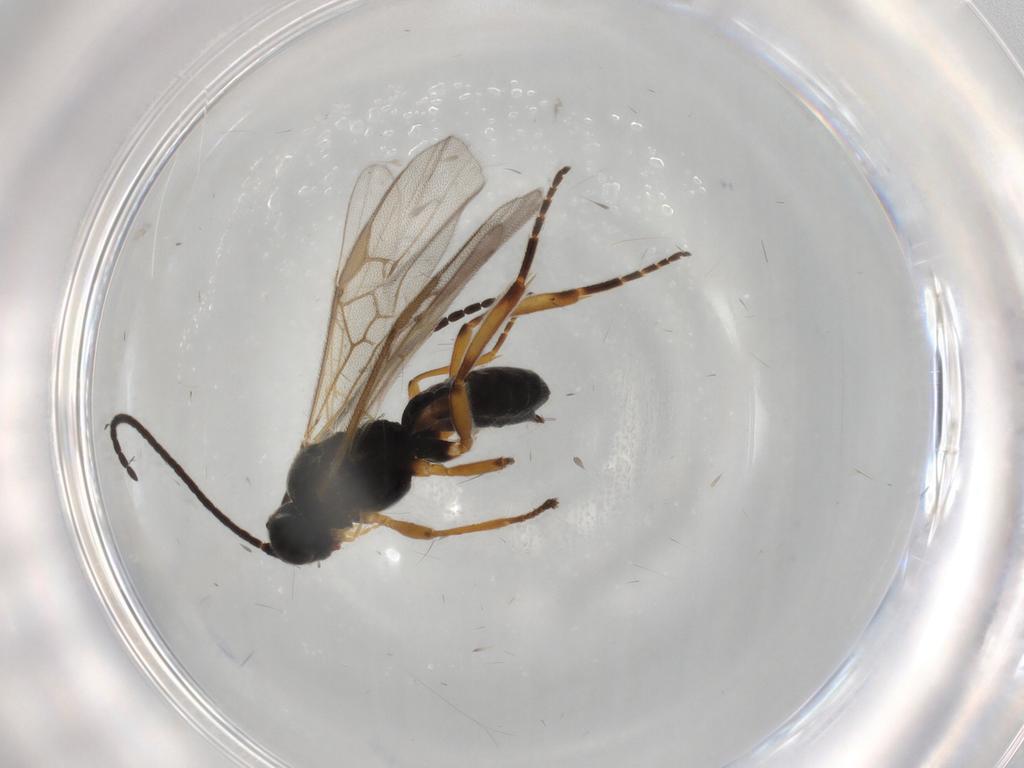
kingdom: Animalia
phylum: Arthropoda
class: Insecta
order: Hymenoptera
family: Braconidae
